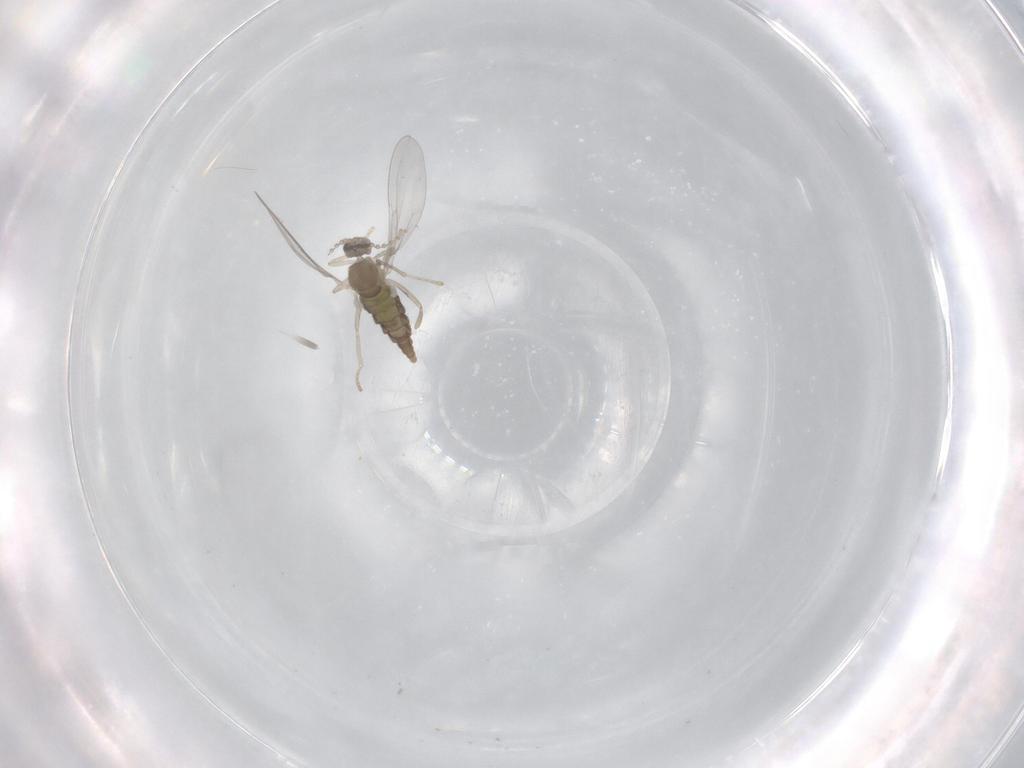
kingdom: Animalia
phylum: Arthropoda
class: Insecta
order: Diptera
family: Cecidomyiidae
